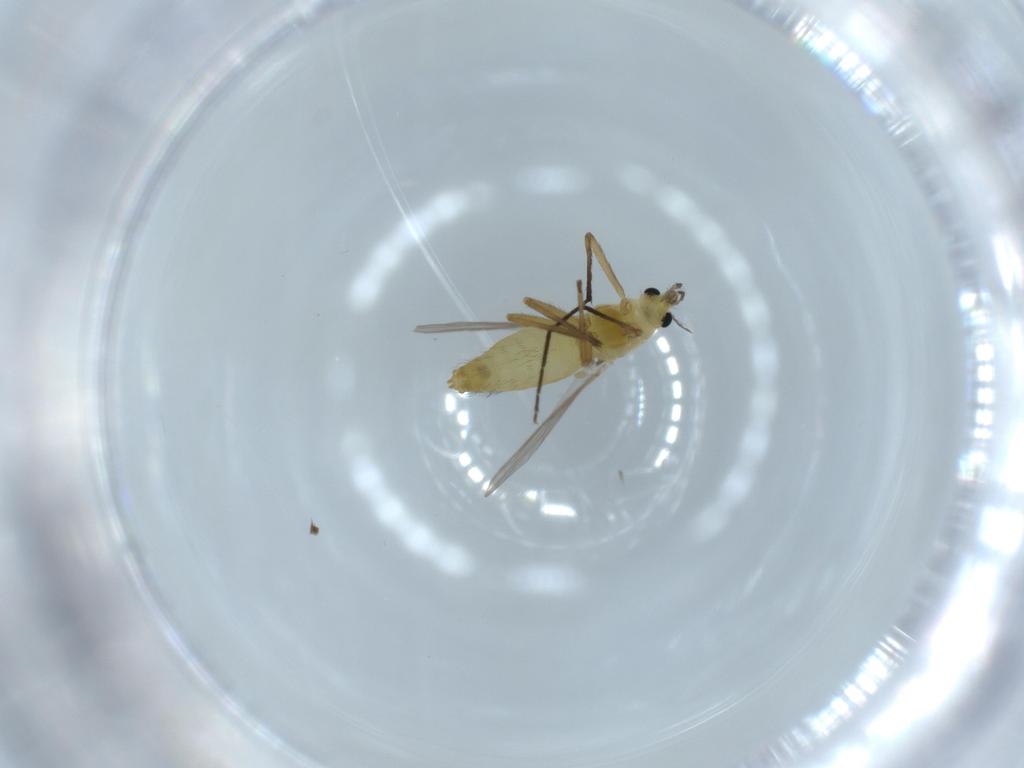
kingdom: Animalia
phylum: Arthropoda
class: Insecta
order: Diptera
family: Chironomidae
